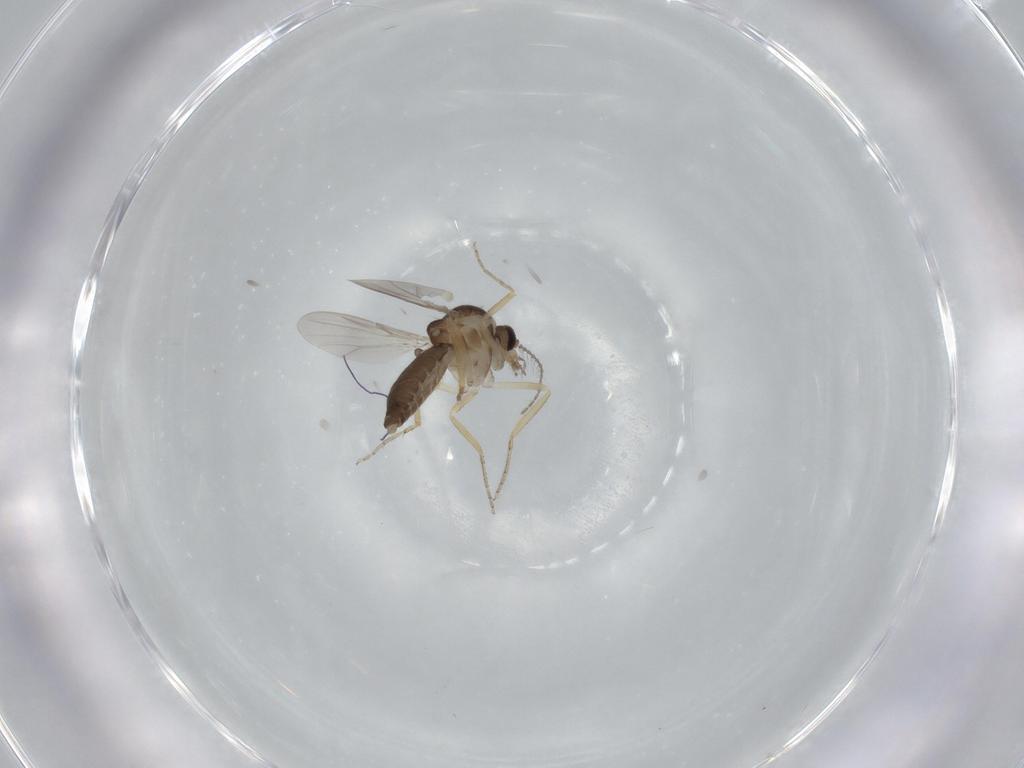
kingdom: Animalia
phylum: Arthropoda
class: Insecta
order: Diptera
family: Ceratopogonidae
